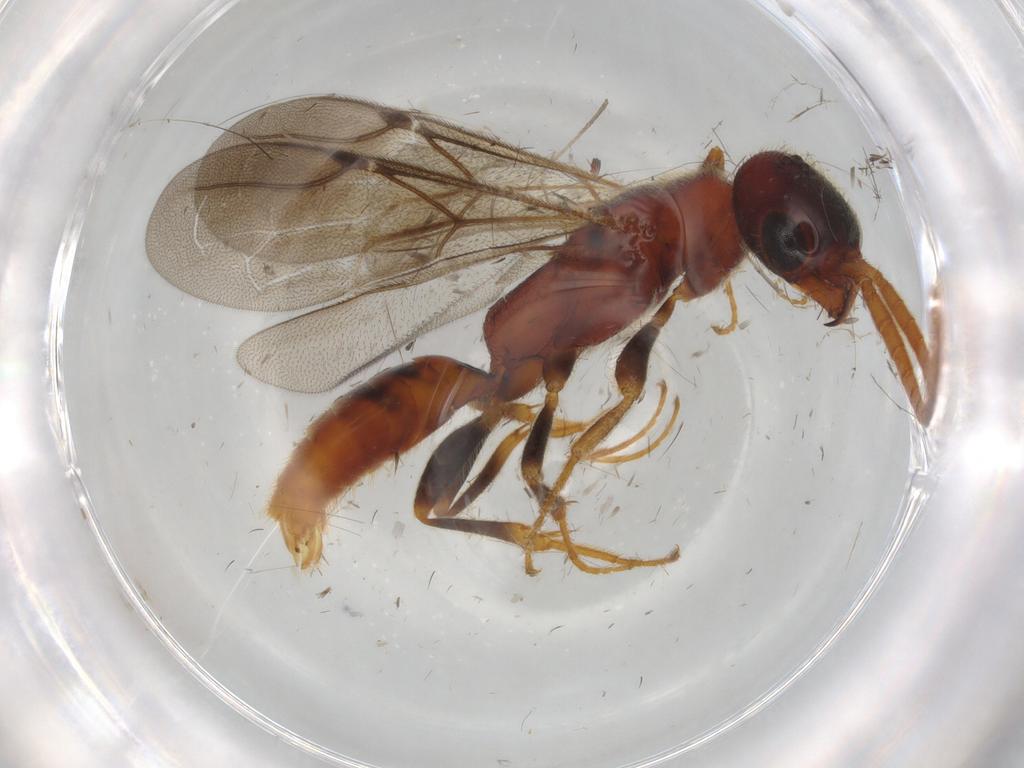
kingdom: Animalia
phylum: Arthropoda
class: Insecta
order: Hymenoptera
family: Bethylidae
